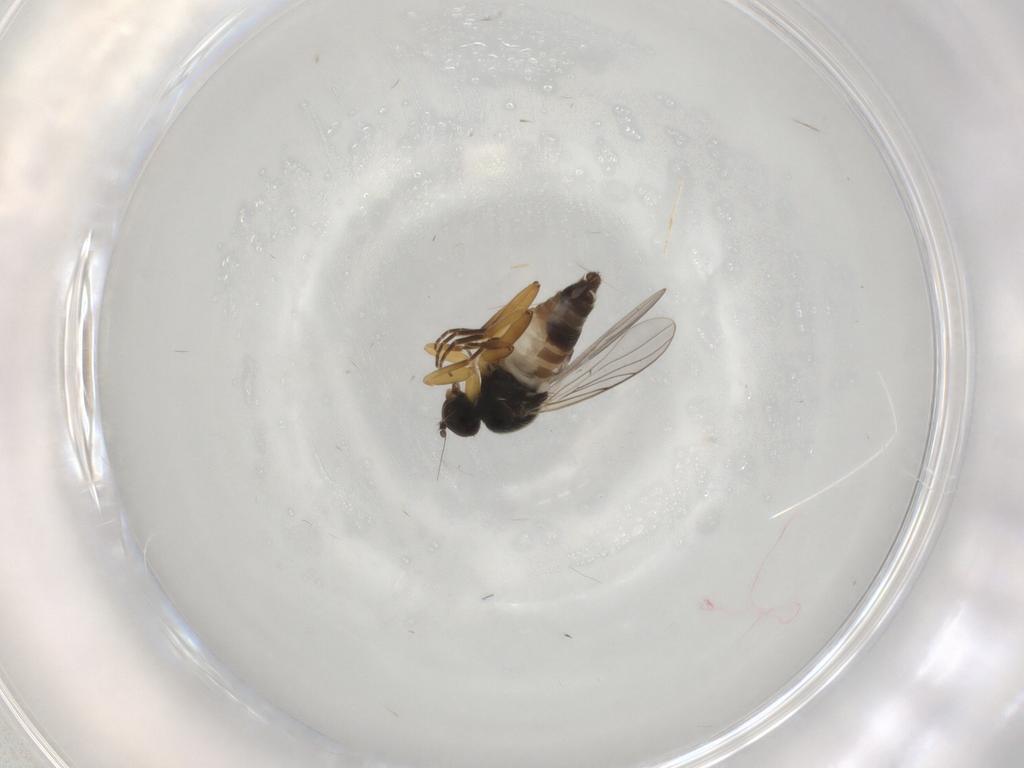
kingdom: Animalia
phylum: Arthropoda
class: Insecta
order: Diptera
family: Hybotidae
